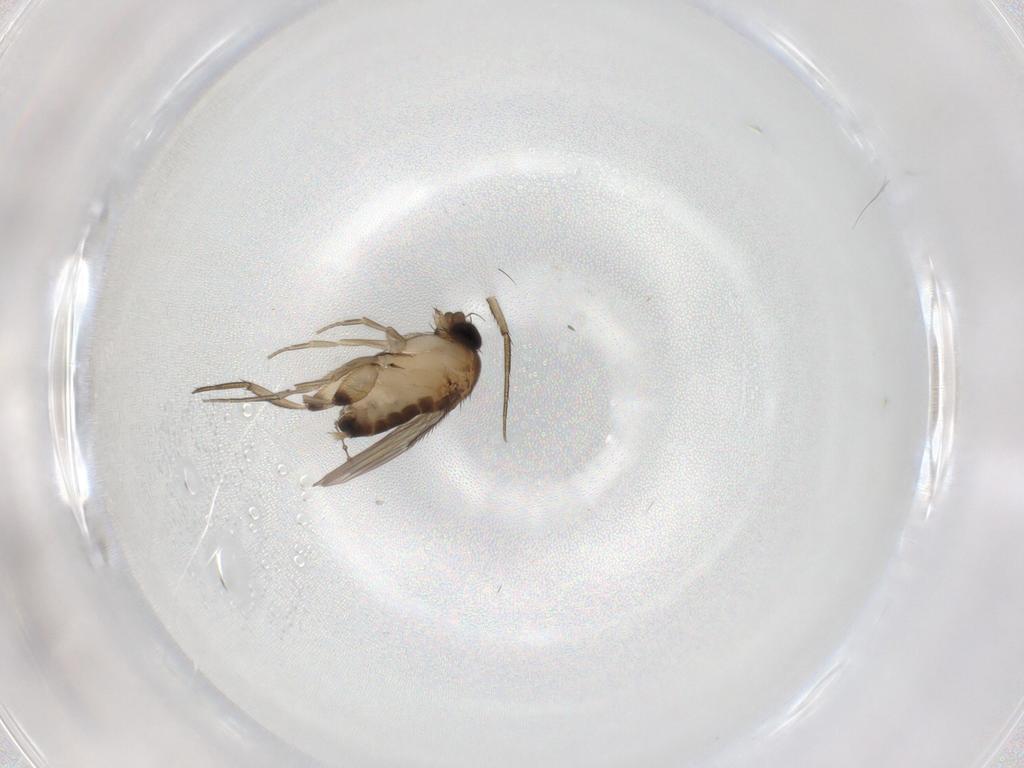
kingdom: Animalia
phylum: Arthropoda
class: Insecta
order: Diptera
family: Phoridae
